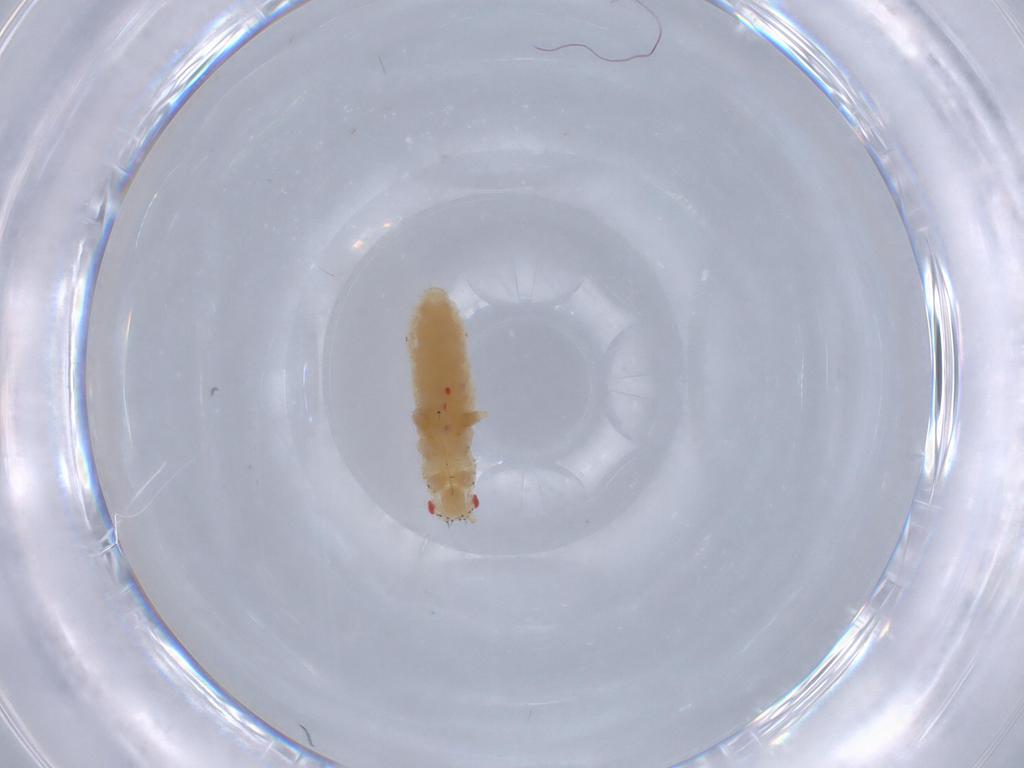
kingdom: Animalia
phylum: Arthropoda
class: Insecta
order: Hemiptera
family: Aphididae
